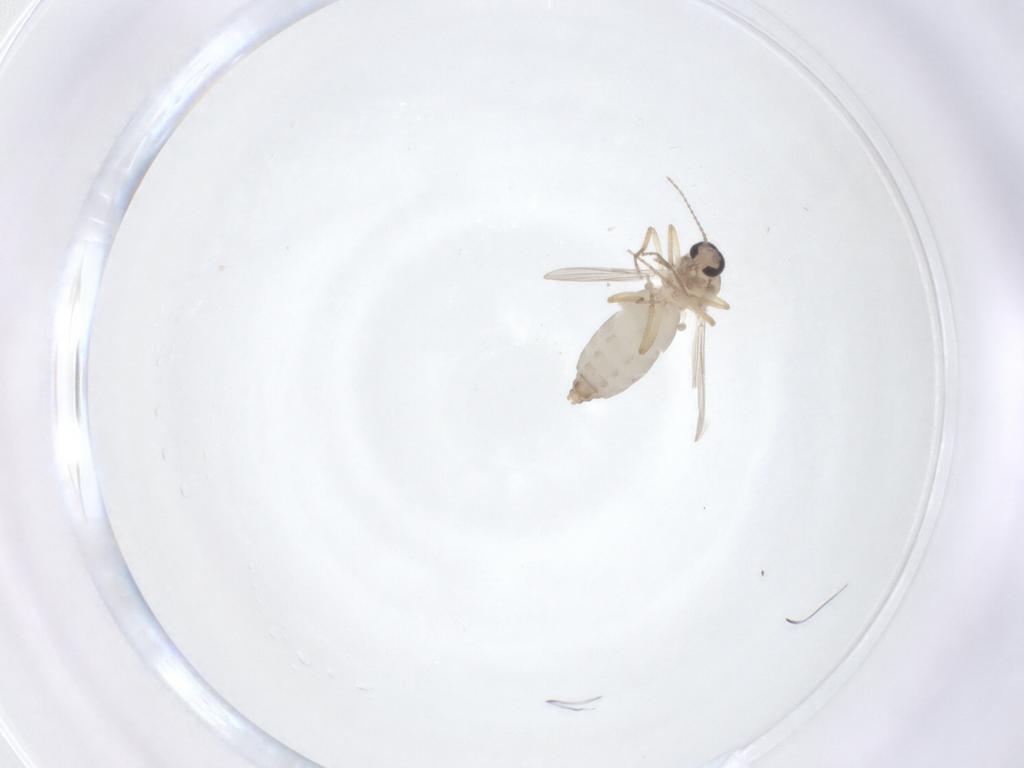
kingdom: Animalia
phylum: Arthropoda
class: Insecta
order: Diptera
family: Ceratopogonidae
